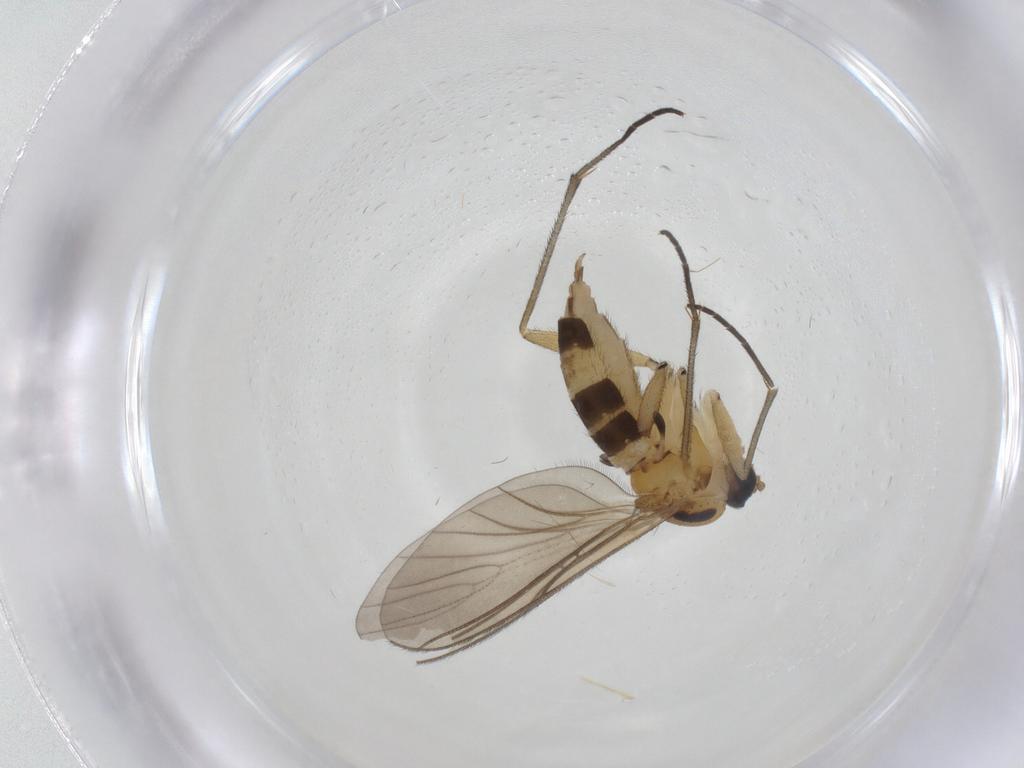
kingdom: Animalia
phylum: Arthropoda
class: Insecta
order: Diptera
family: Sciaridae
